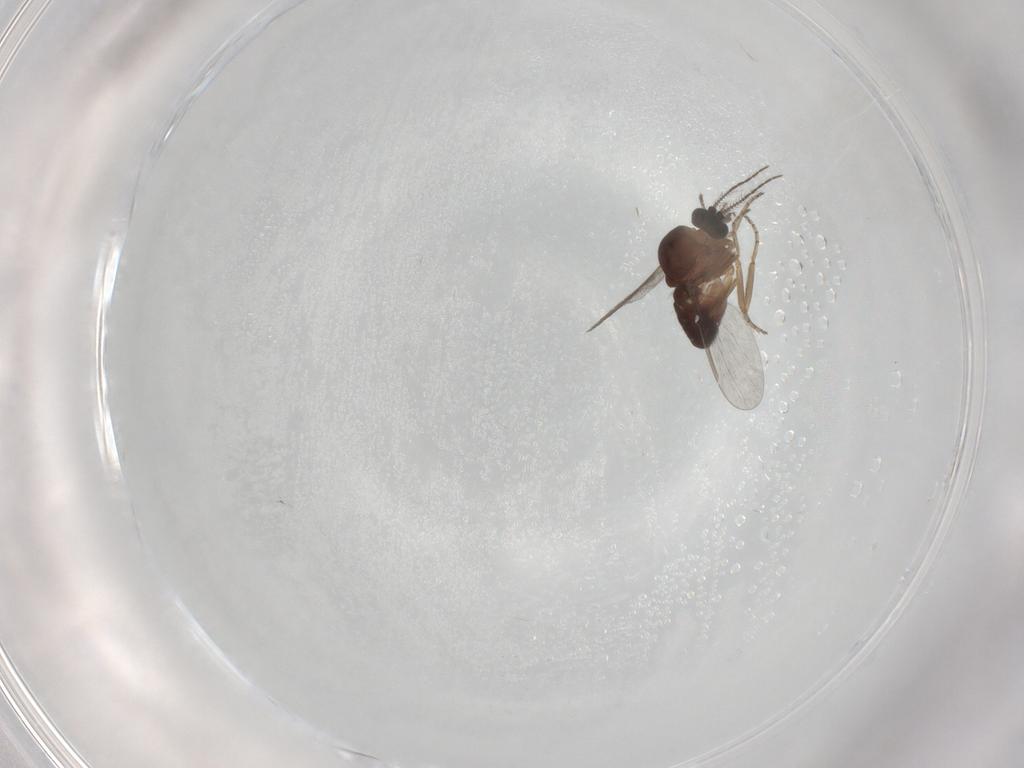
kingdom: Animalia
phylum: Arthropoda
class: Insecta
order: Diptera
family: Ceratopogonidae
